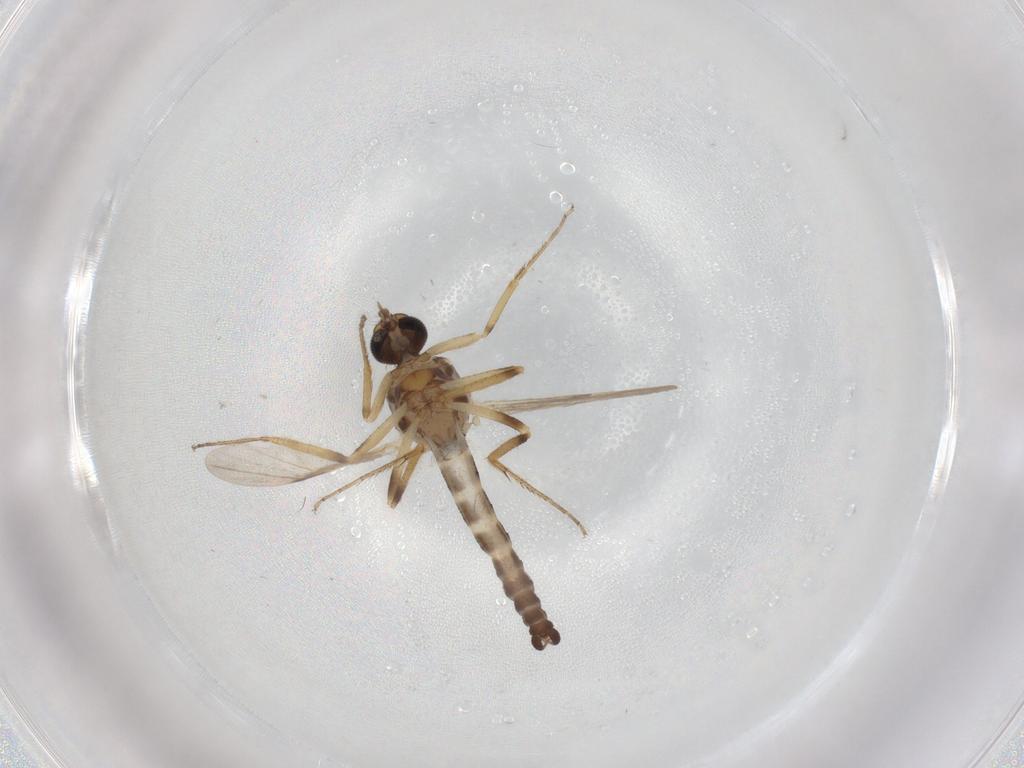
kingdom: Animalia
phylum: Arthropoda
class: Insecta
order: Diptera
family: Ceratopogonidae
